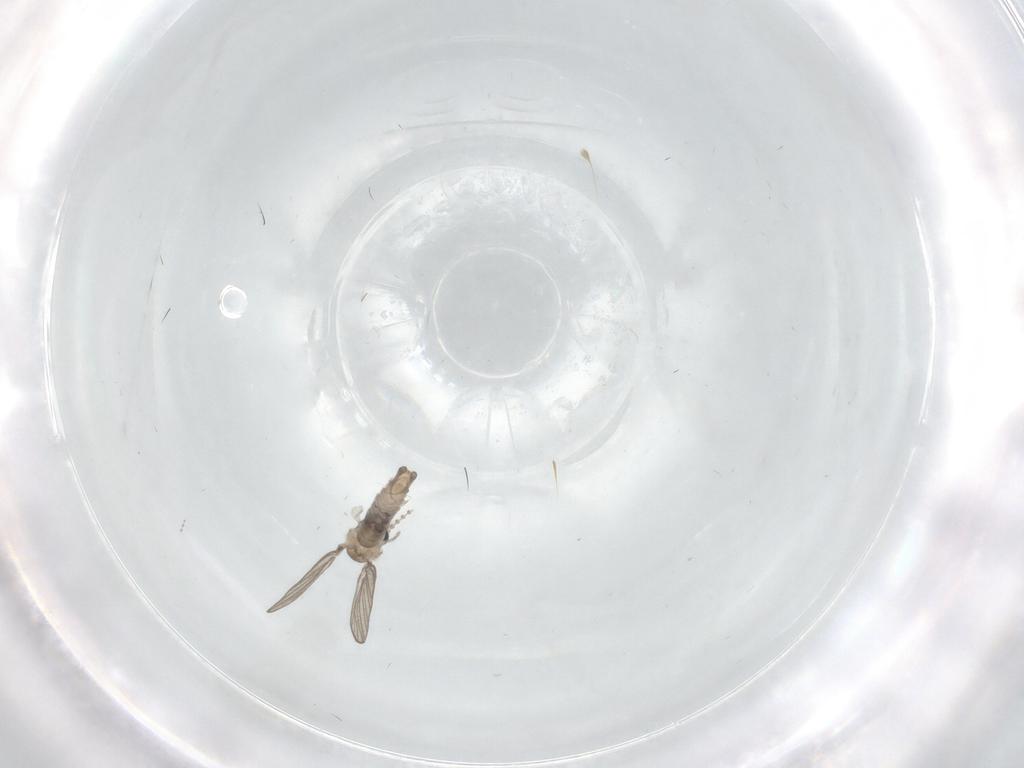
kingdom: Animalia
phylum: Arthropoda
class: Insecta
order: Diptera
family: Psychodidae
